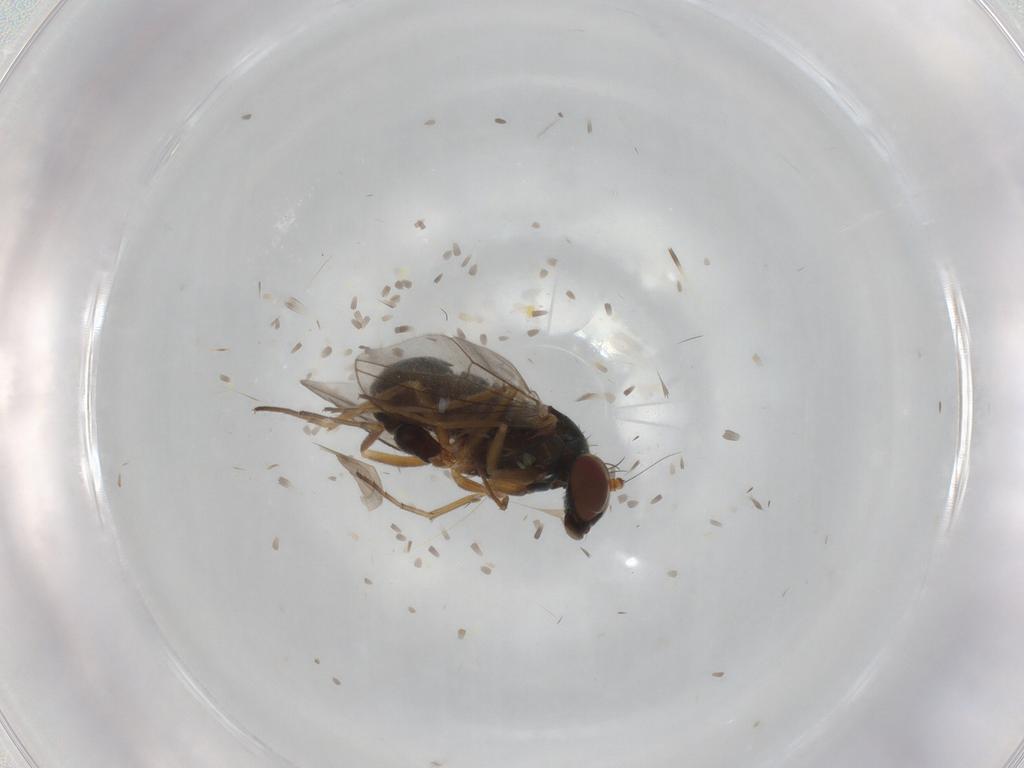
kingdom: Animalia
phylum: Arthropoda
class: Insecta
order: Diptera
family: Dolichopodidae
